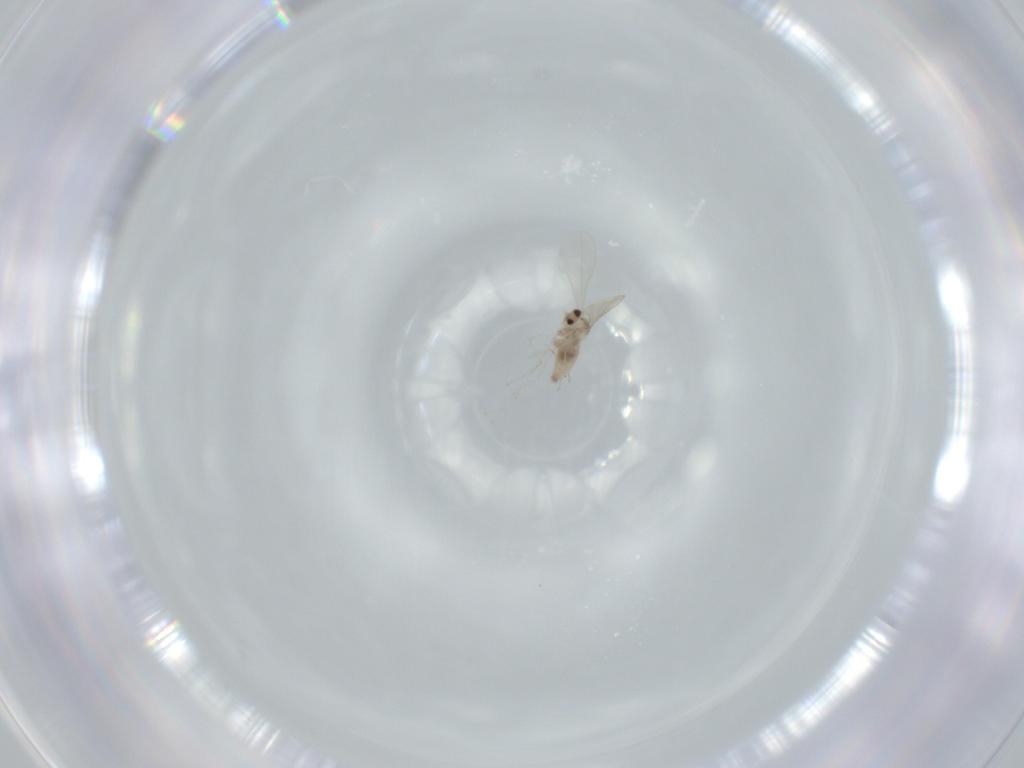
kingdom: Animalia
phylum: Arthropoda
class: Insecta
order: Diptera
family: Cecidomyiidae
